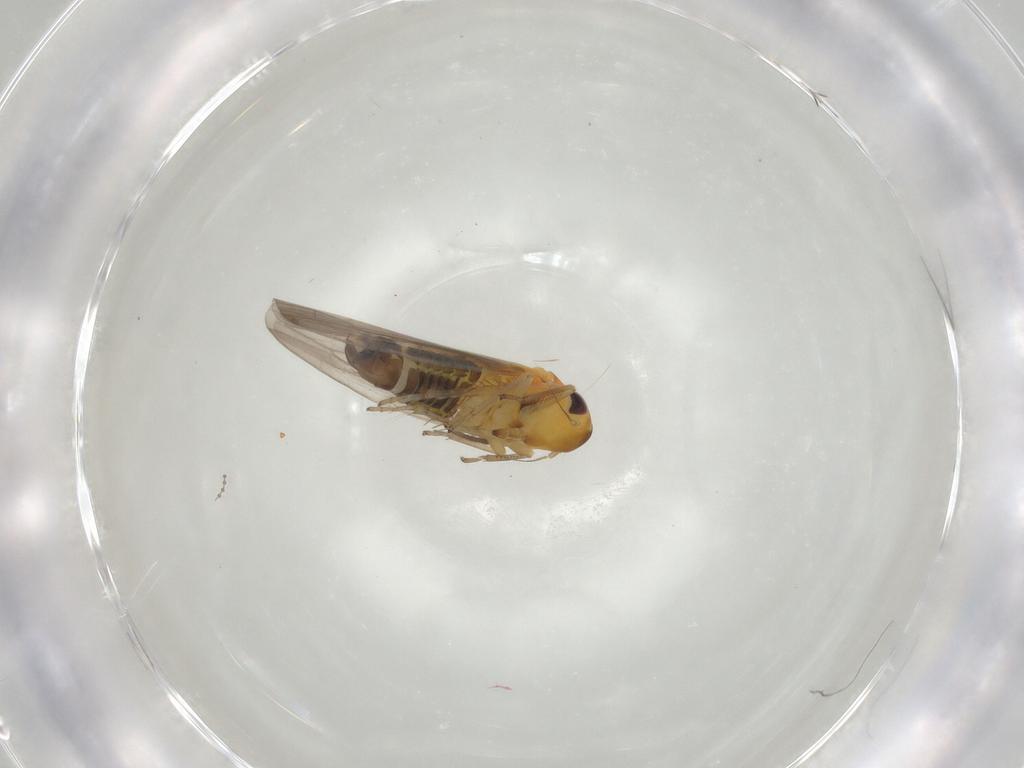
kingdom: Animalia
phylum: Arthropoda
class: Insecta
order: Hemiptera
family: Cicadellidae
